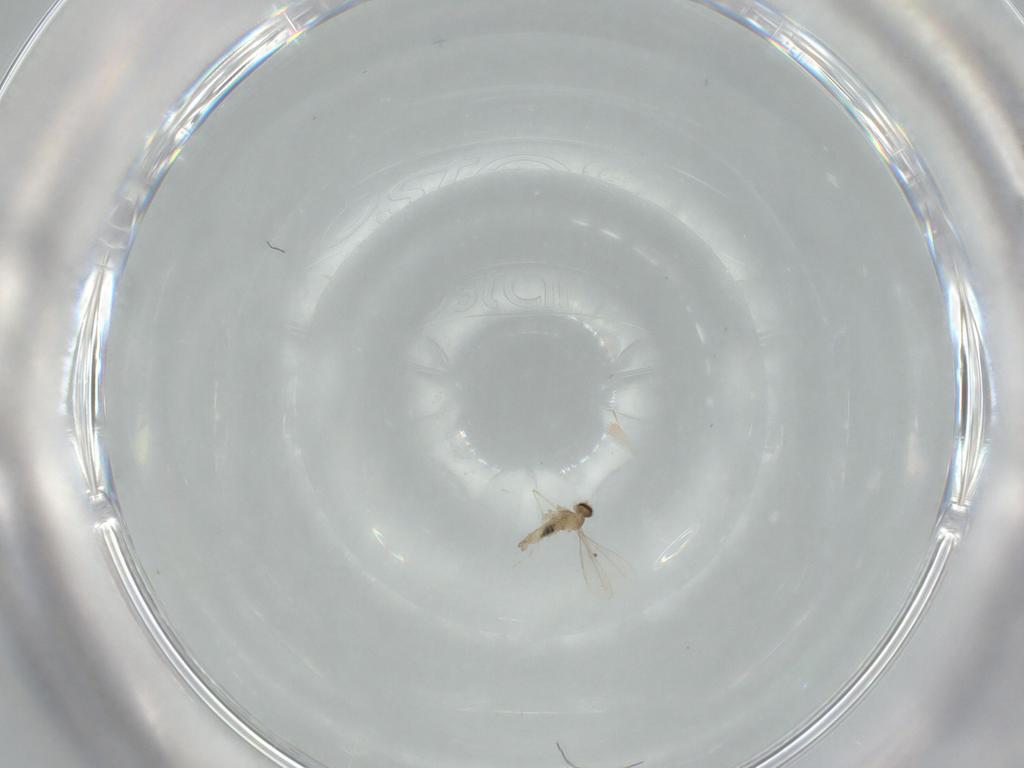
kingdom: Animalia
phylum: Arthropoda
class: Insecta
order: Diptera
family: Cecidomyiidae
